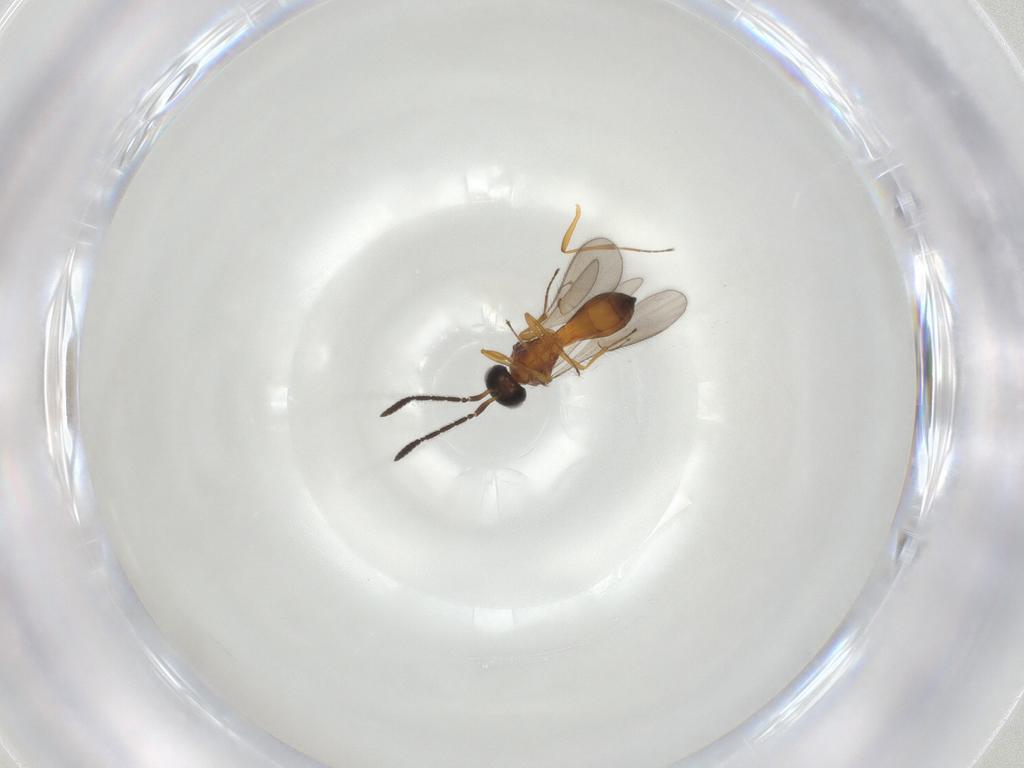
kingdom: Animalia
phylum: Arthropoda
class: Insecta
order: Hymenoptera
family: Scelionidae
